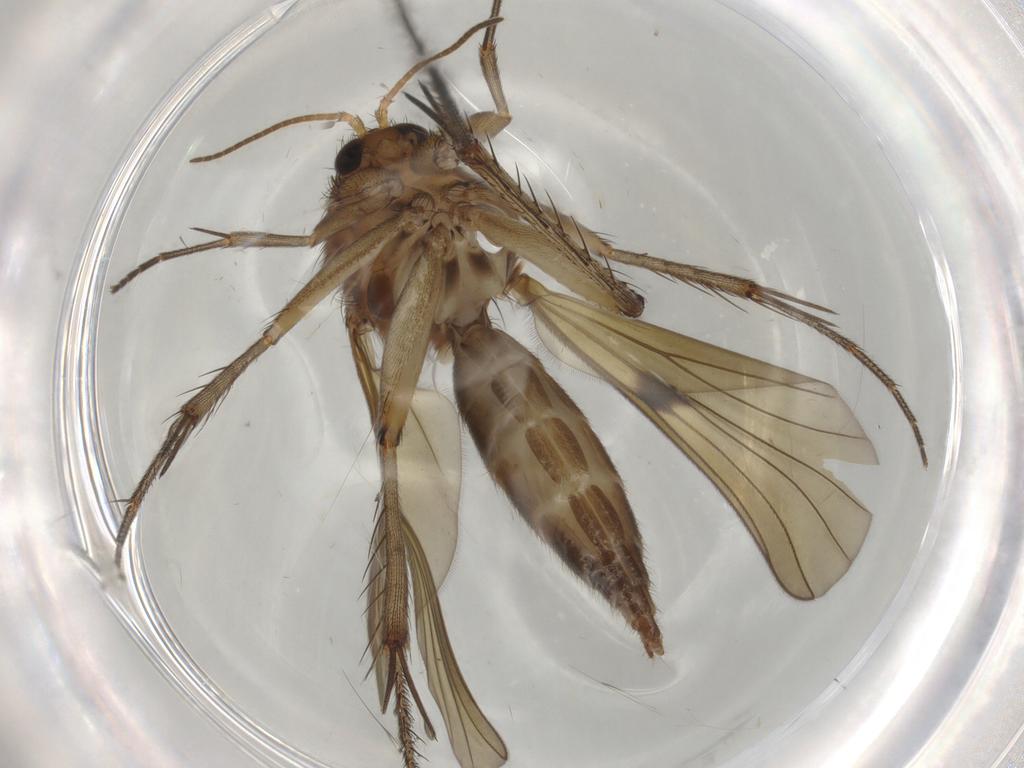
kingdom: Animalia
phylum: Arthropoda
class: Insecta
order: Diptera
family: Mycetophilidae
